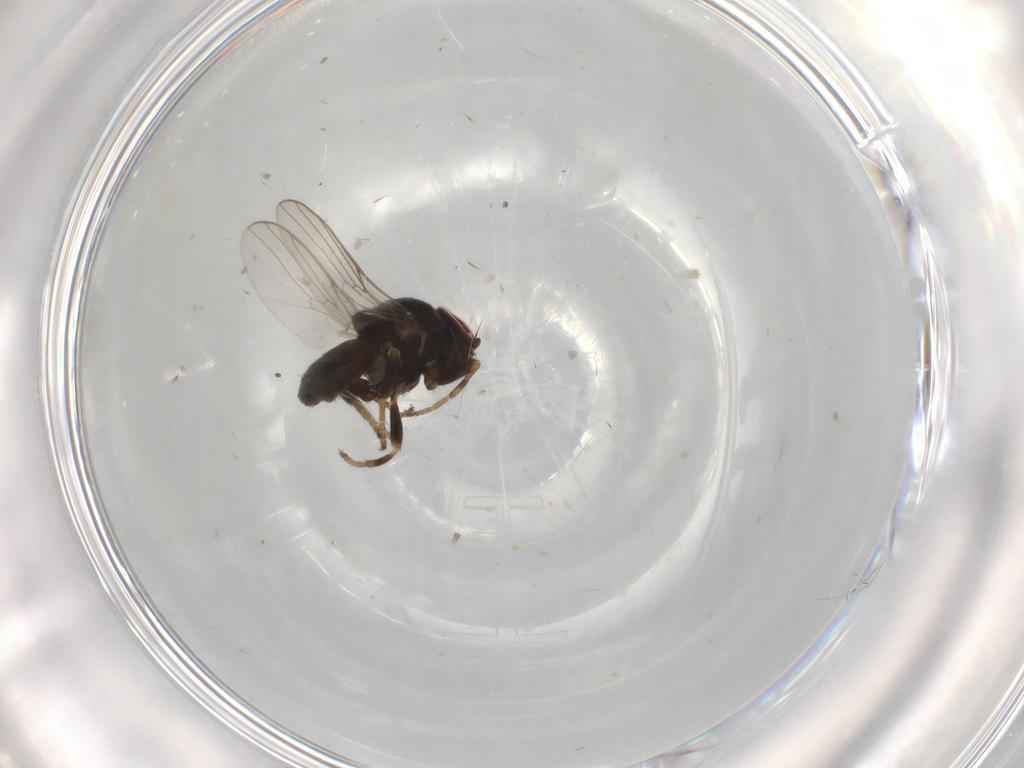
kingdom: Animalia
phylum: Arthropoda
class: Insecta
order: Diptera
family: Chloropidae
